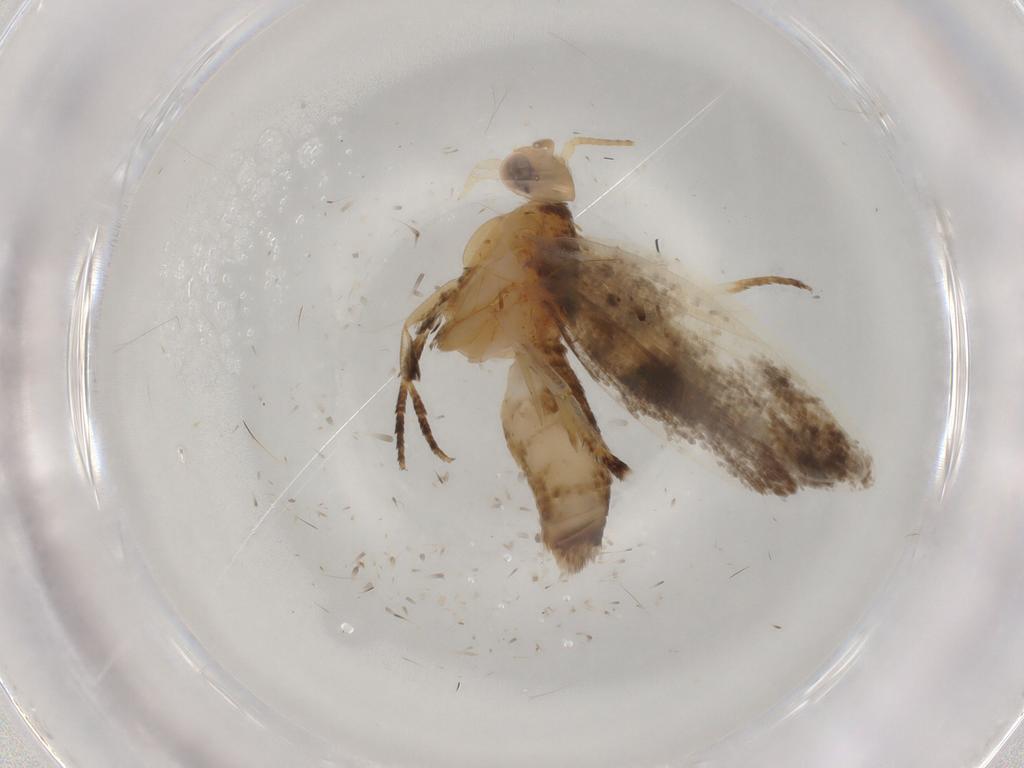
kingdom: Animalia
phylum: Arthropoda
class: Insecta
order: Lepidoptera
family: Ypsolophidae
